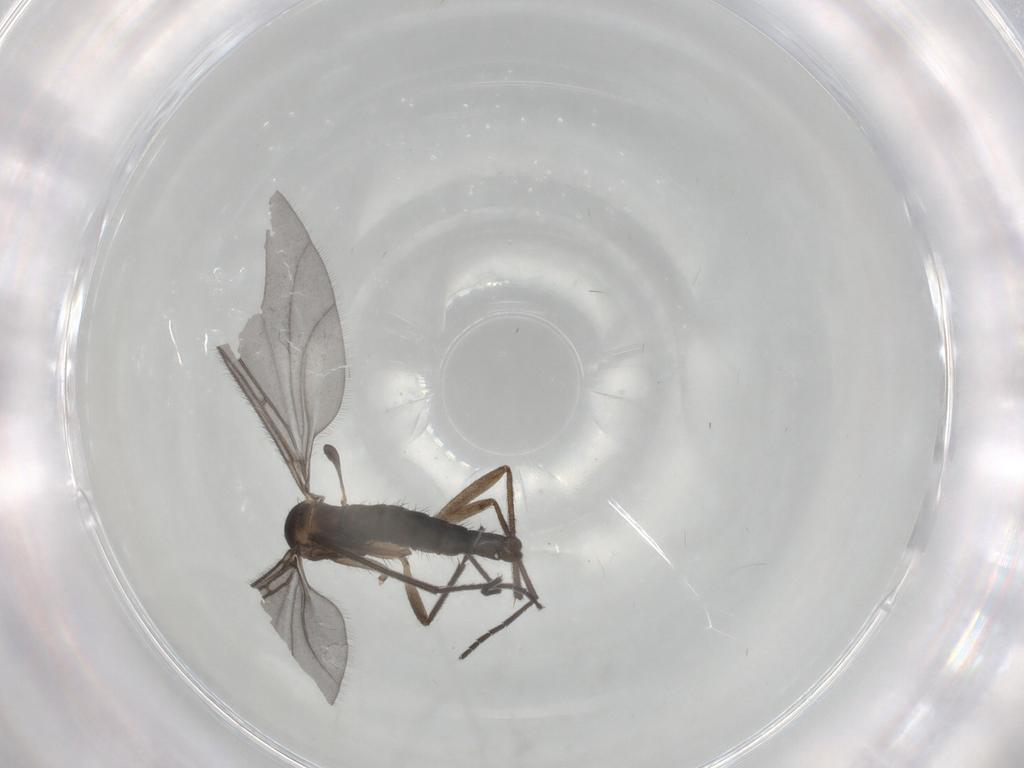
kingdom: Animalia
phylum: Arthropoda
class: Insecta
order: Diptera
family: Sciaridae
